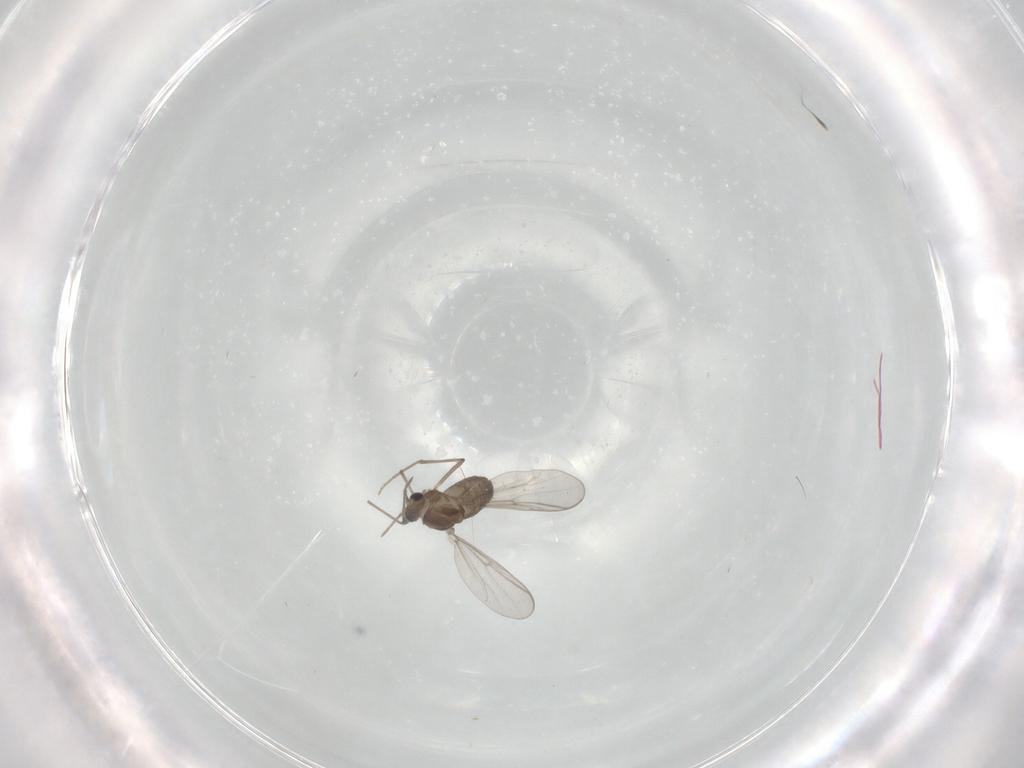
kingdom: Animalia
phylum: Arthropoda
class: Insecta
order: Diptera
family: Chironomidae
